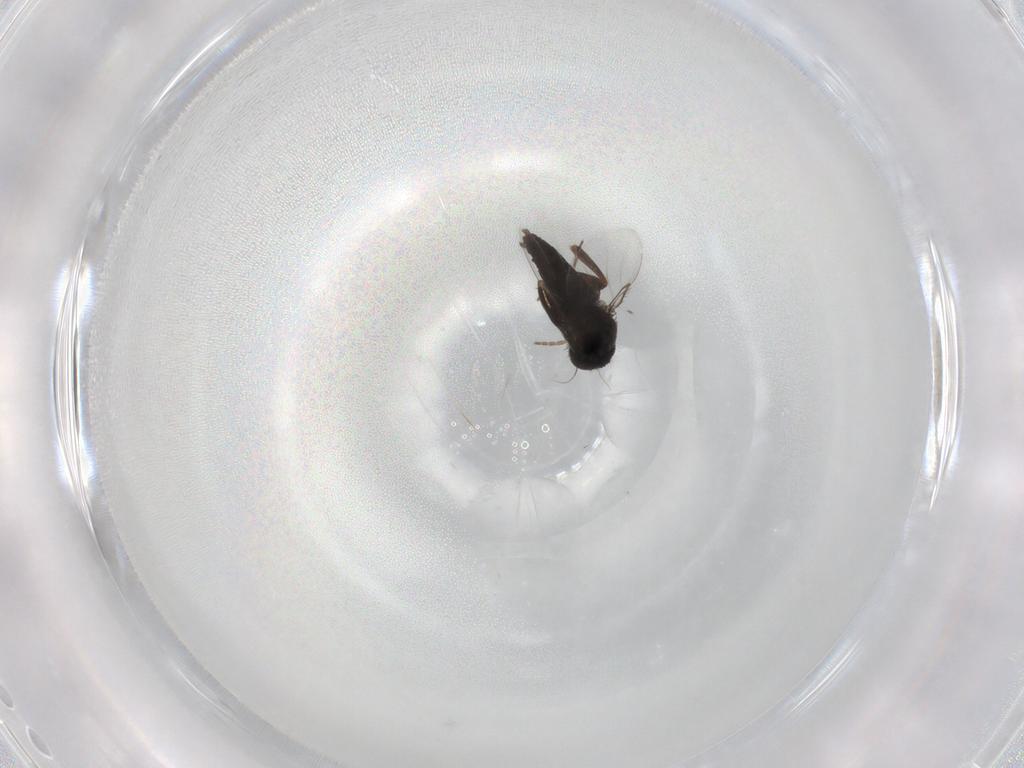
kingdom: Animalia
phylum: Arthropoda
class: Insecta
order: Diptera
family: Phoridae
